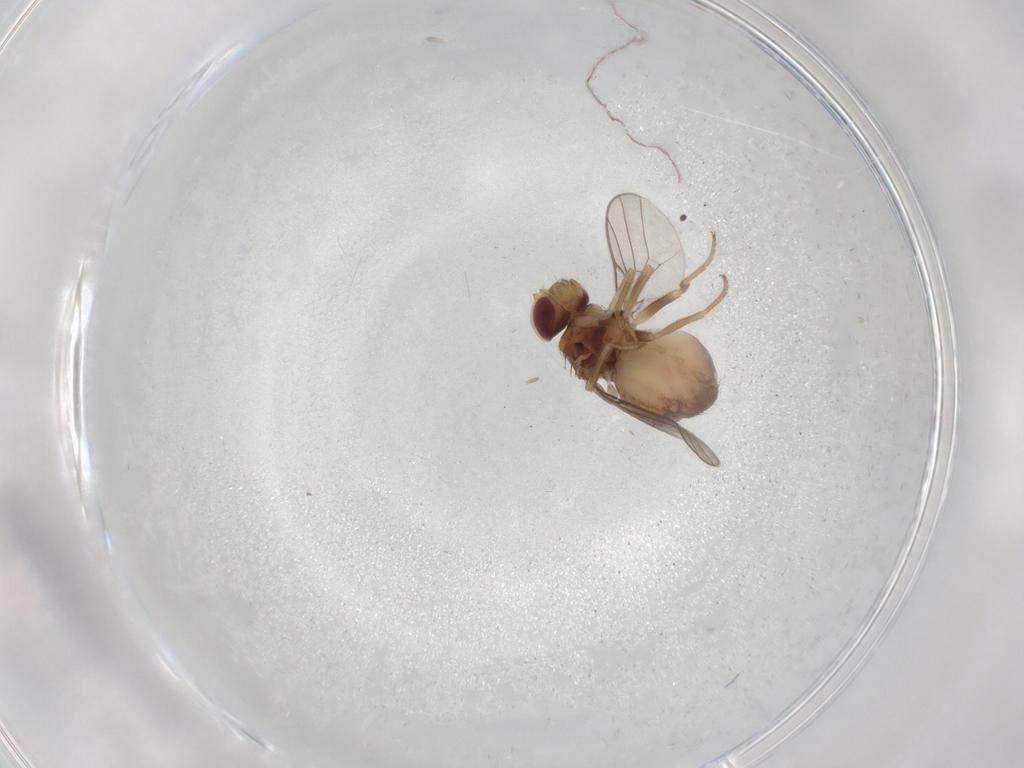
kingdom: Animalia
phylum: Arthropoda
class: Insecta
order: Diptera
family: Chloropidae
